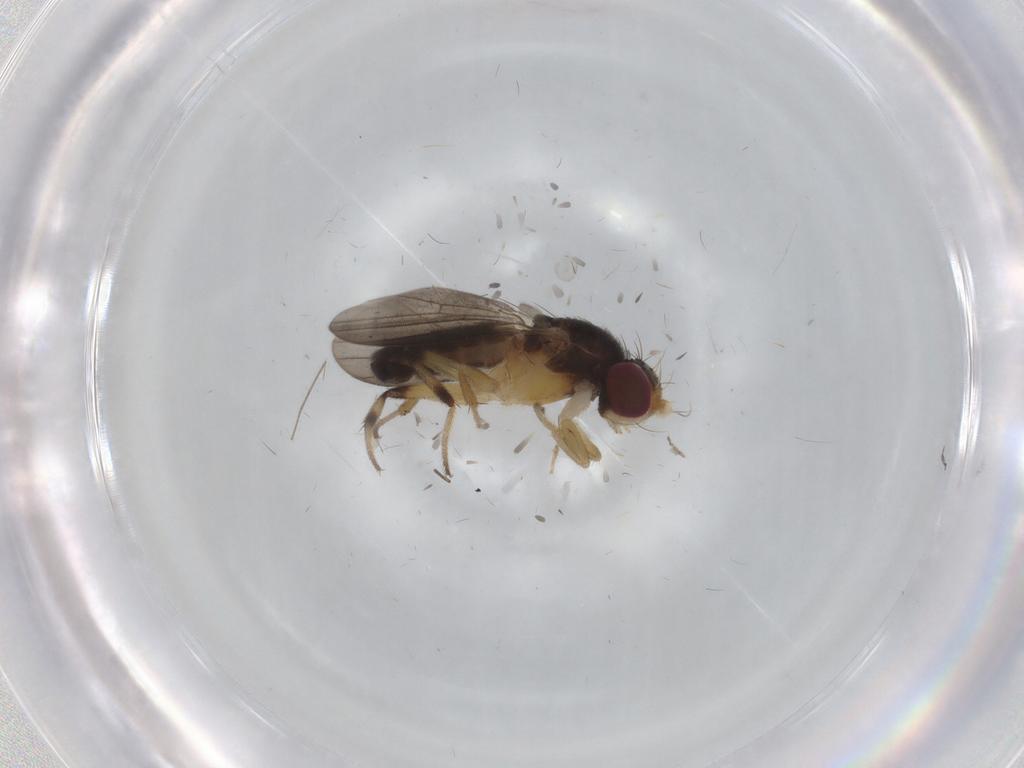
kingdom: Animalia
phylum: Arthropoda
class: Insecta
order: Diptera
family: Clusiidae
